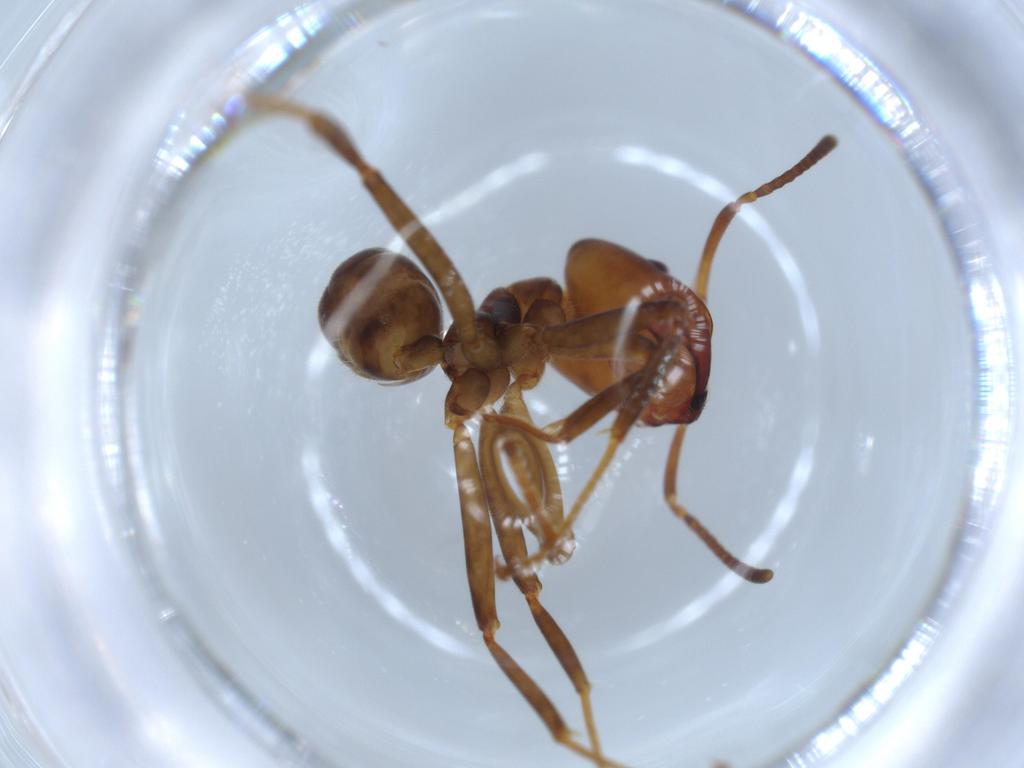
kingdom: Animalia
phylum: Arthropoda
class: Insecta
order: Hymenoptera
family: Formicidae
